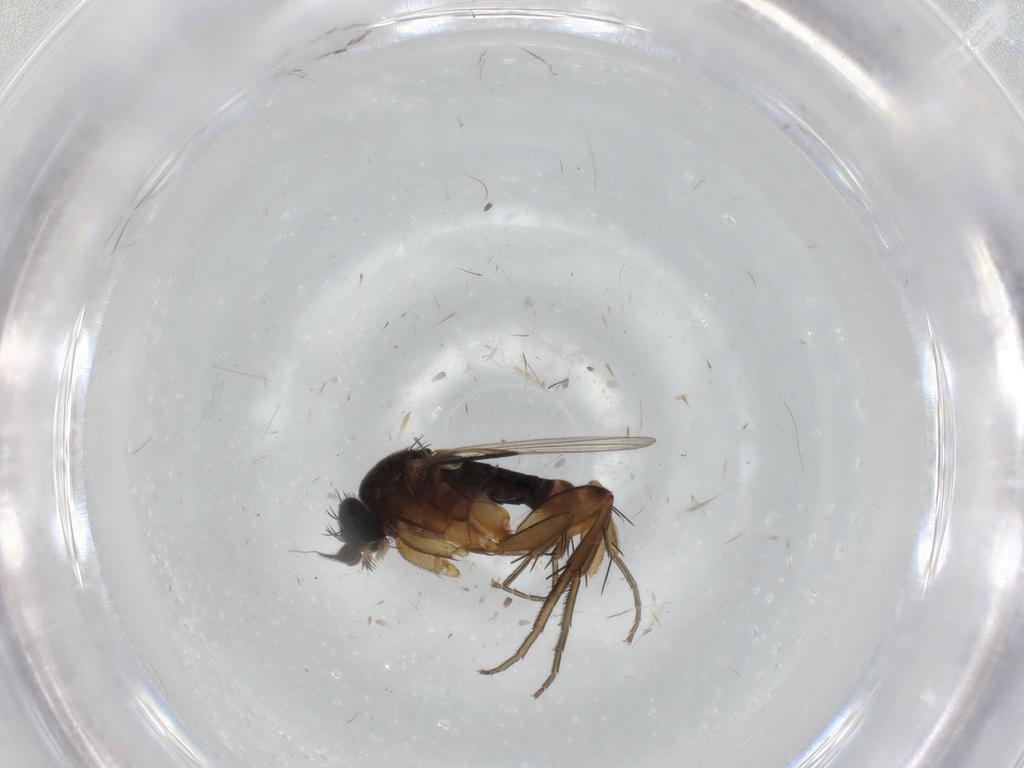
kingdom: Animalia
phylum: Arthropoda
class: Insecta
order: Diptera
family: Phoridae
